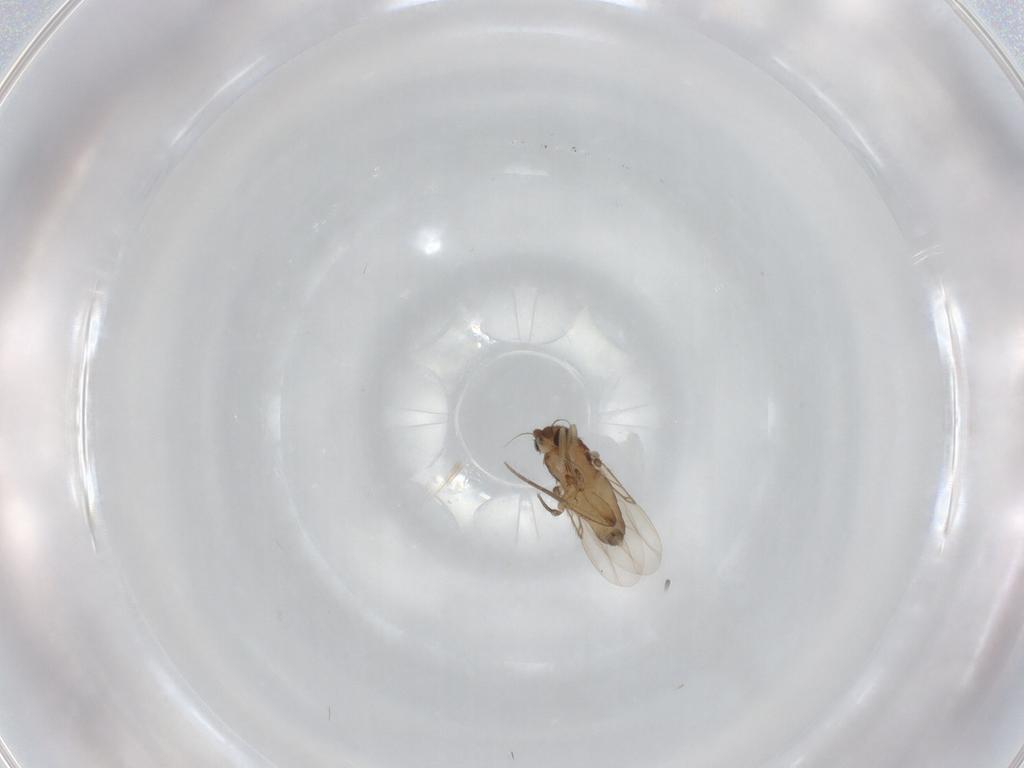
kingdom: Animalia
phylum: Arthropoda
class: Insecta
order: Diptera
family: Phoridae
